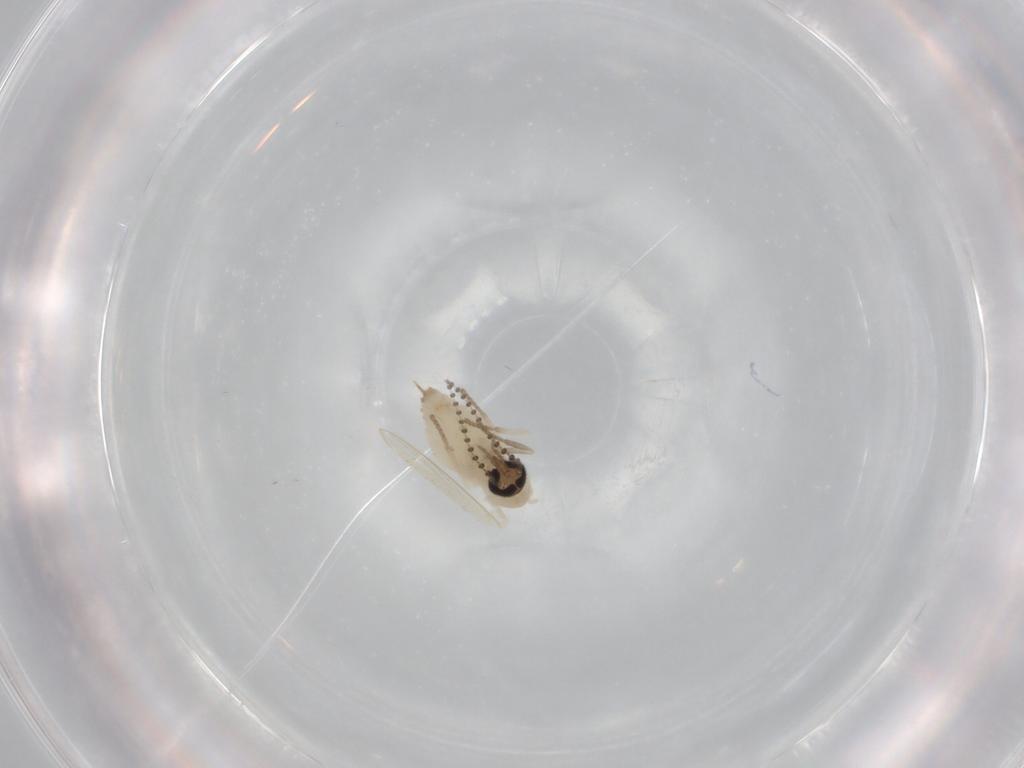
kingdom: Animalia
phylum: Arthropoda
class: Insecta
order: Diptera
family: Psychodidae
